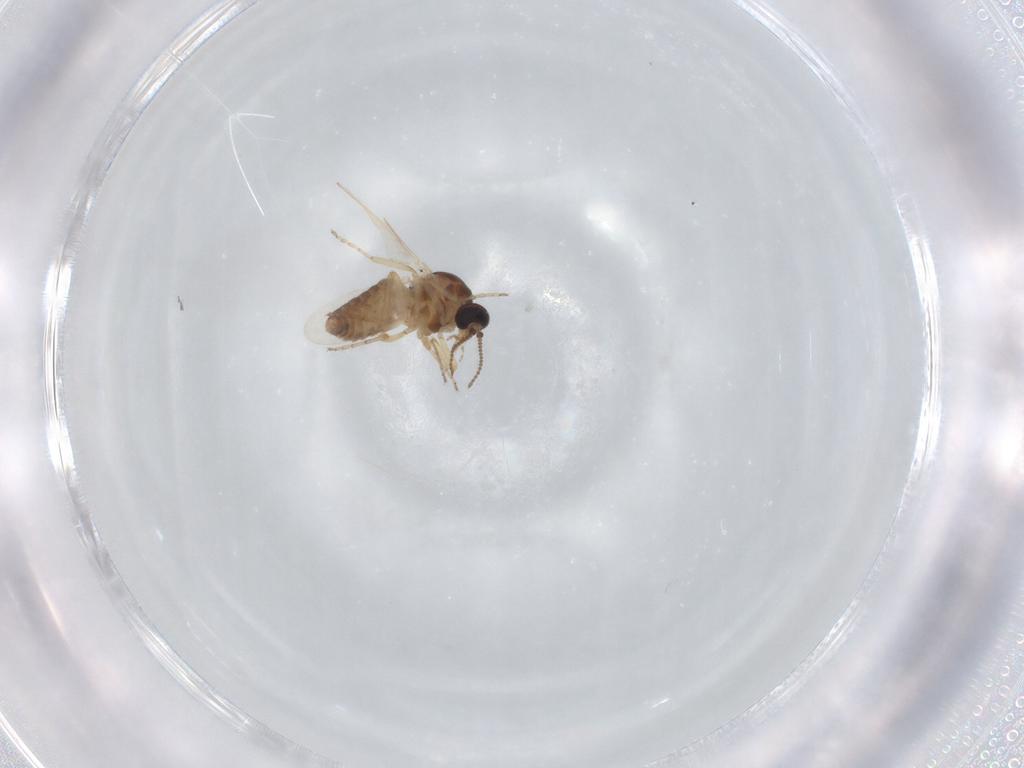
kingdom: Animalia
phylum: Arthropoda
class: Insecta
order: Diptera
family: Ceratopogonidae
